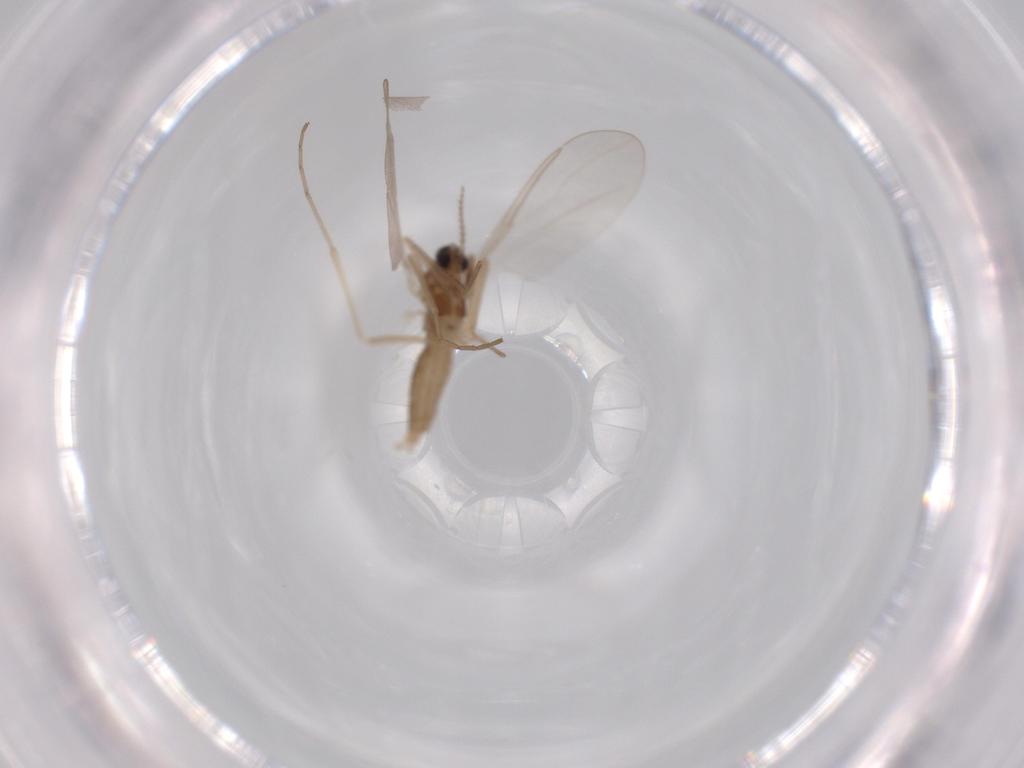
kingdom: Animalia
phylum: Arthropoda
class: Insecta
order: Diptera
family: Cecidomyiidae
